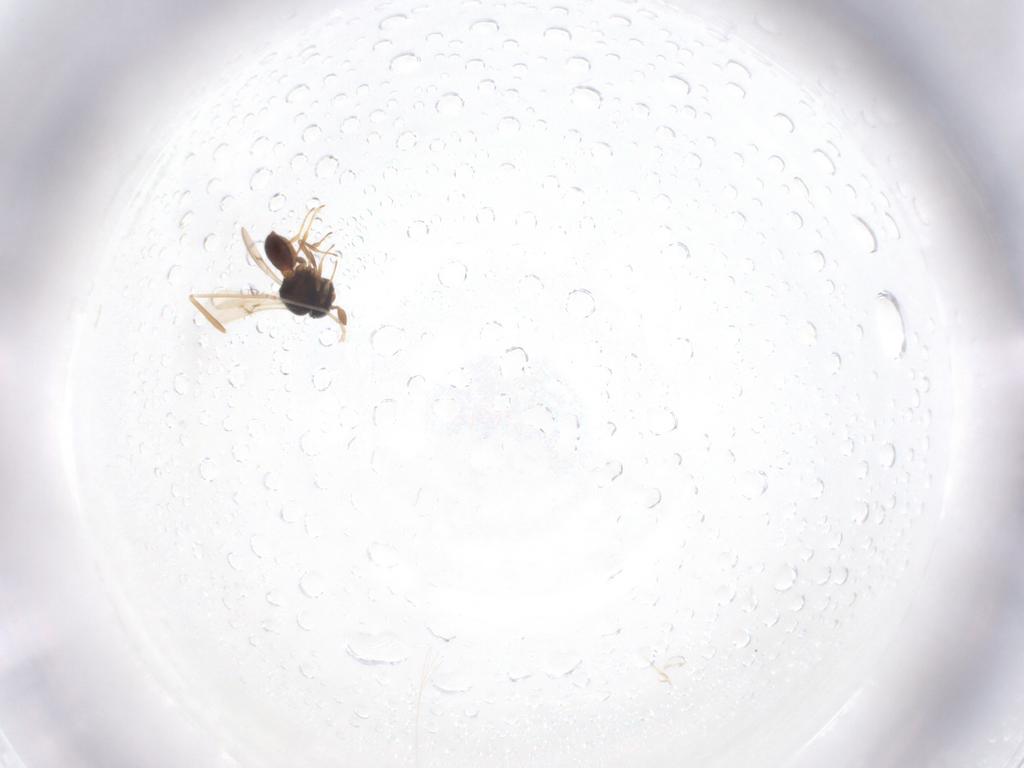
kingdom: Animalia
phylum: Arthropoda
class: Insecta
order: Hymenoptera
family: Scelionidae
